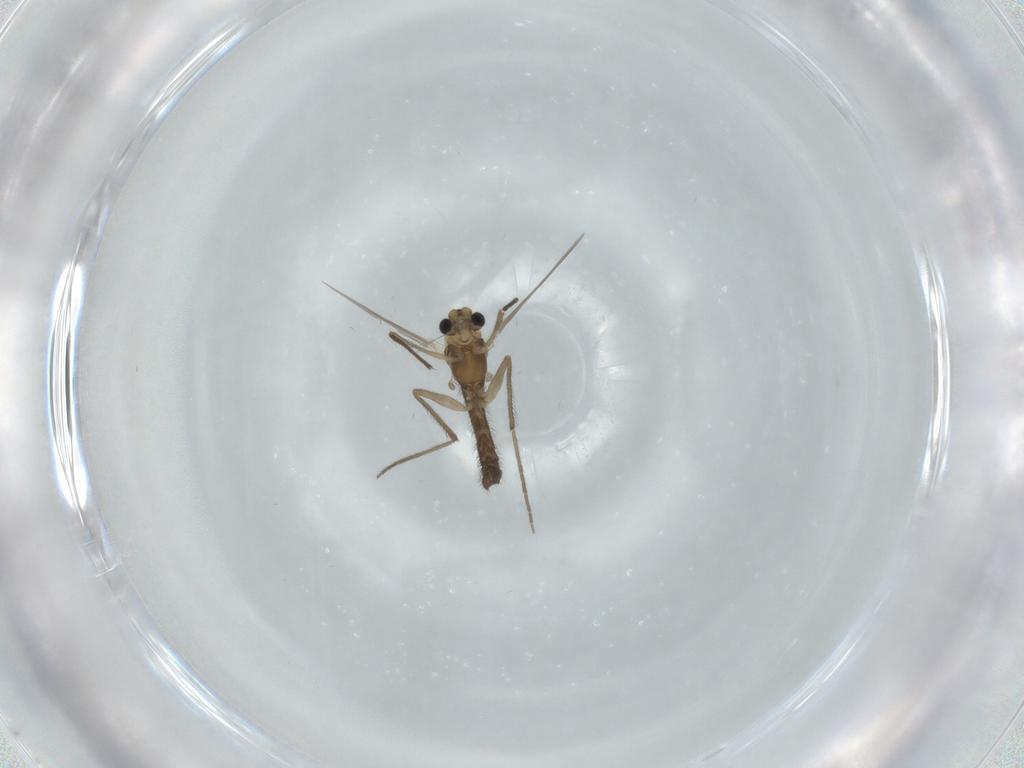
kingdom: Animalia
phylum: Arthropoda
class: Insecta
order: Diptera
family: Chironomidae
